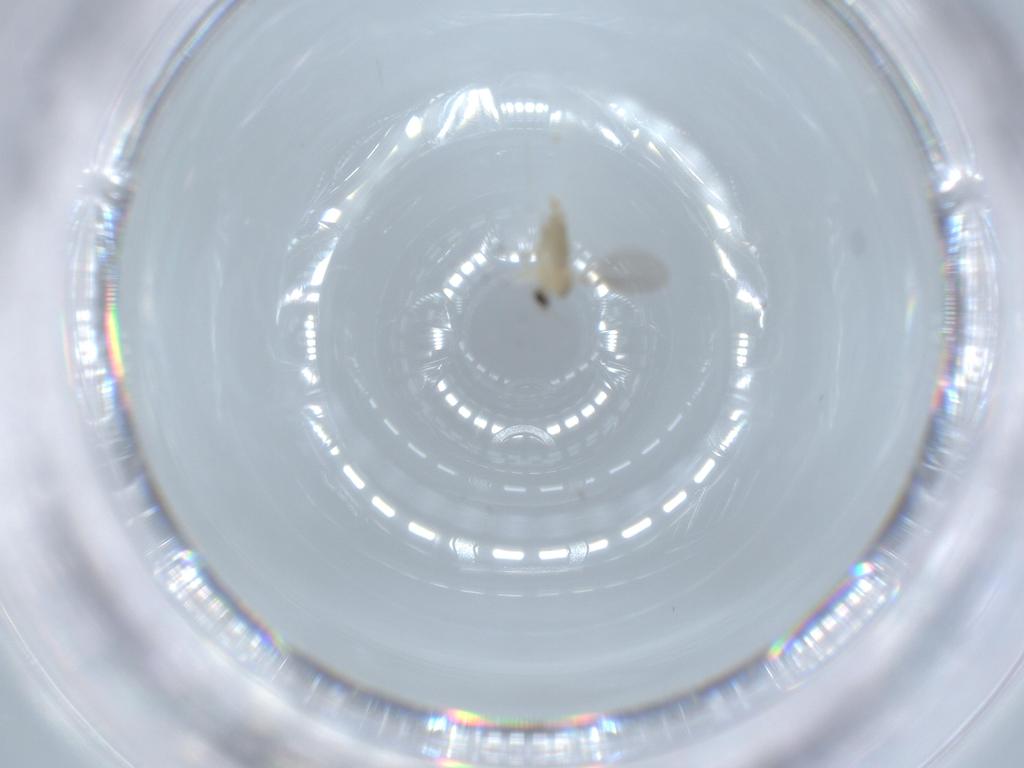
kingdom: Animalia
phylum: Arthropoda
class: Insecta
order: Diptera
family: Cecidomyiidae
